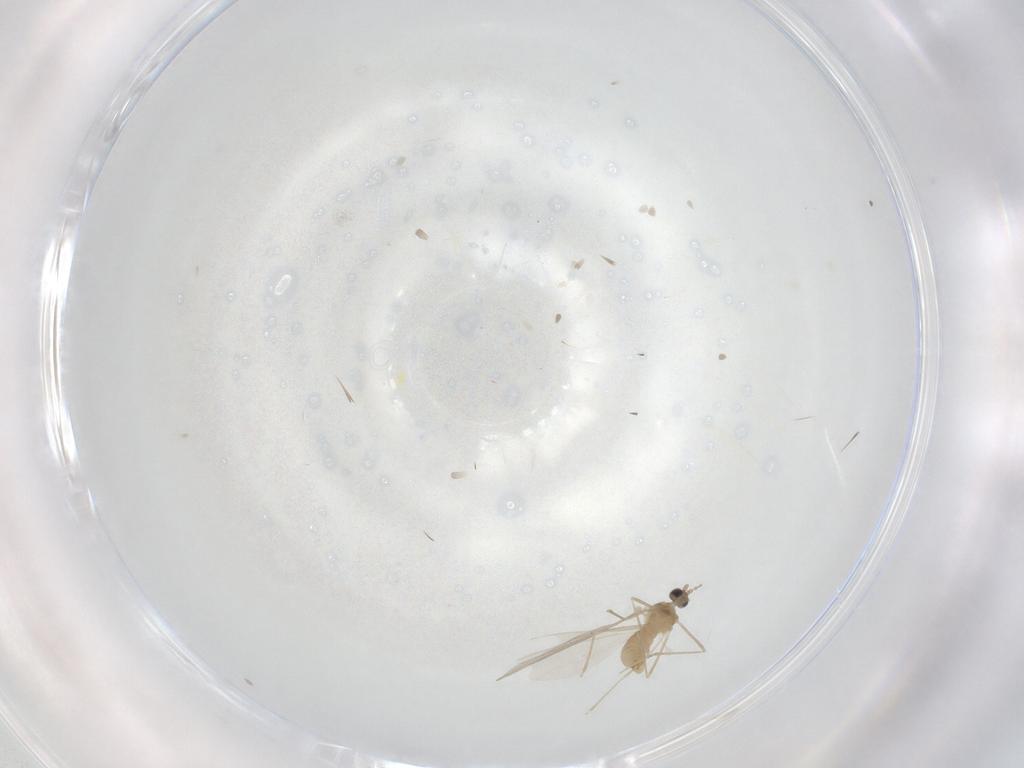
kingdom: Animalia
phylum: Arthropoda
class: Insecta
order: Diptera
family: Cecidomyiidae
